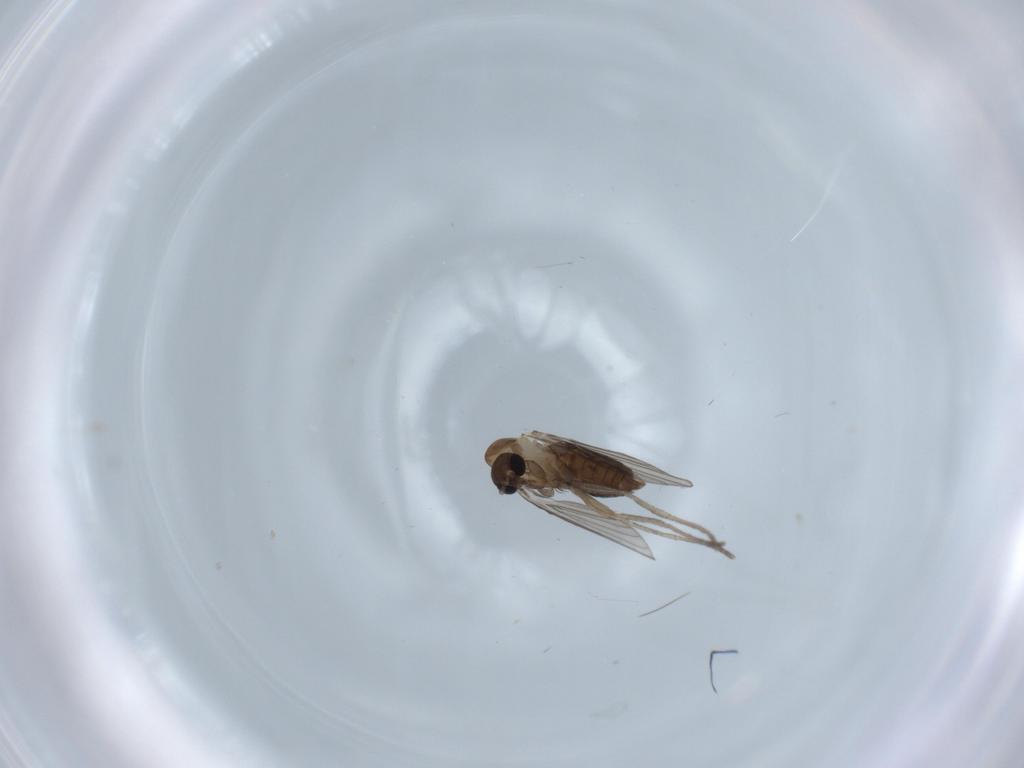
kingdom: Animalia
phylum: Arthropoda
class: Insecta
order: Diptera
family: Psychodidae
